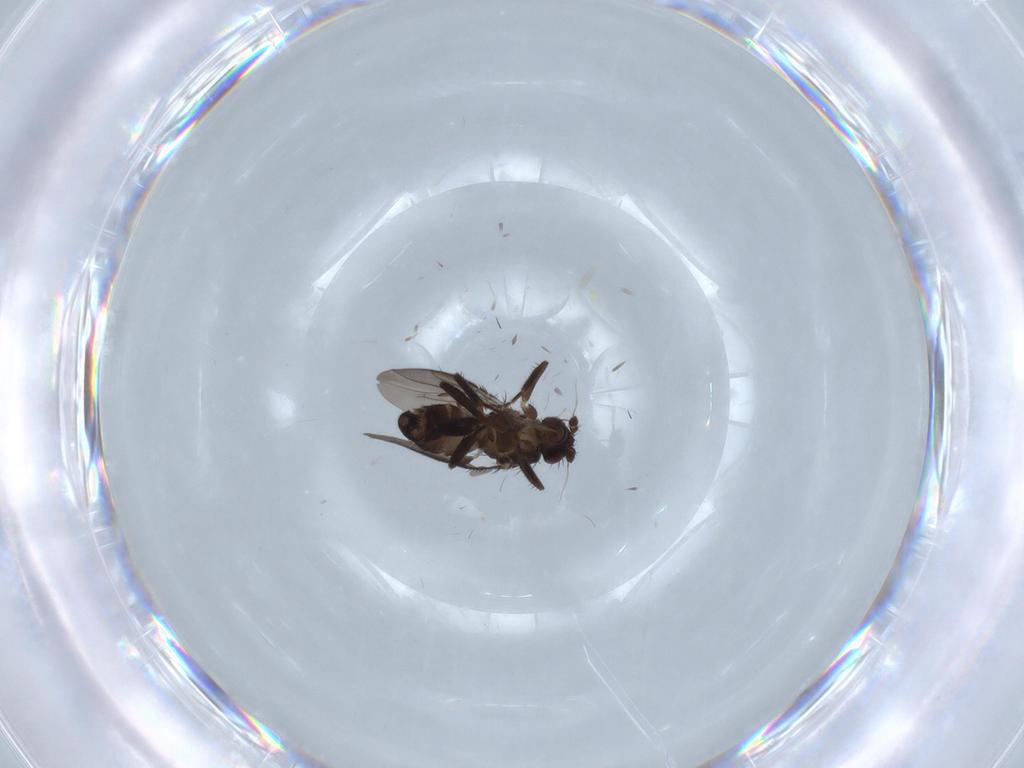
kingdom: Animalia
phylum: Arthropoda
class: Insecta
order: Diptera
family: Sphaeroceridae
